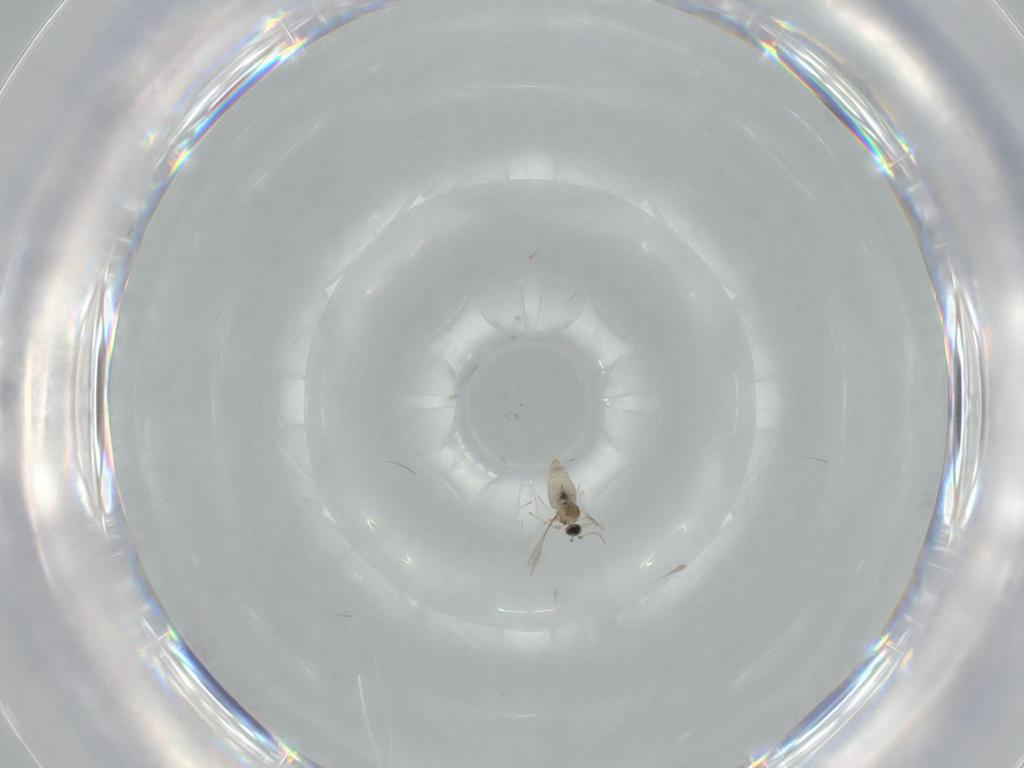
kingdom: Animalia
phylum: Arthropoda
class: Insecta
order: Diptera
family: Cecidomyiidae
